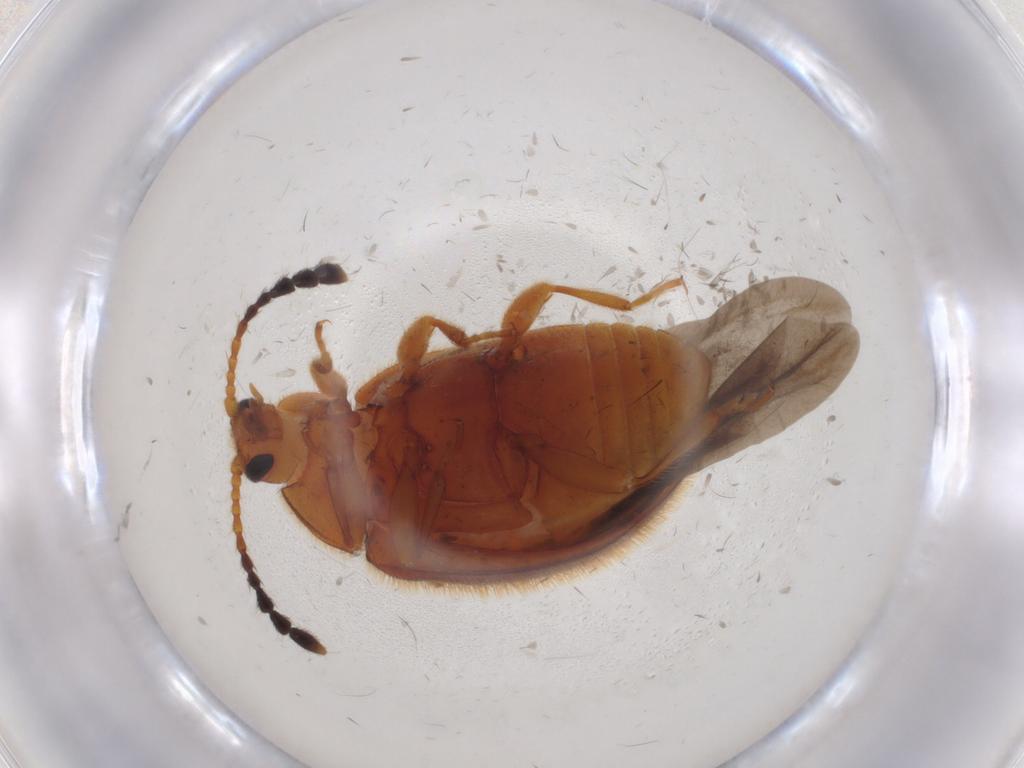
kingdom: Animalia
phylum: Arthropoda
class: Insecta
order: Coleoptera
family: Endomychidae
